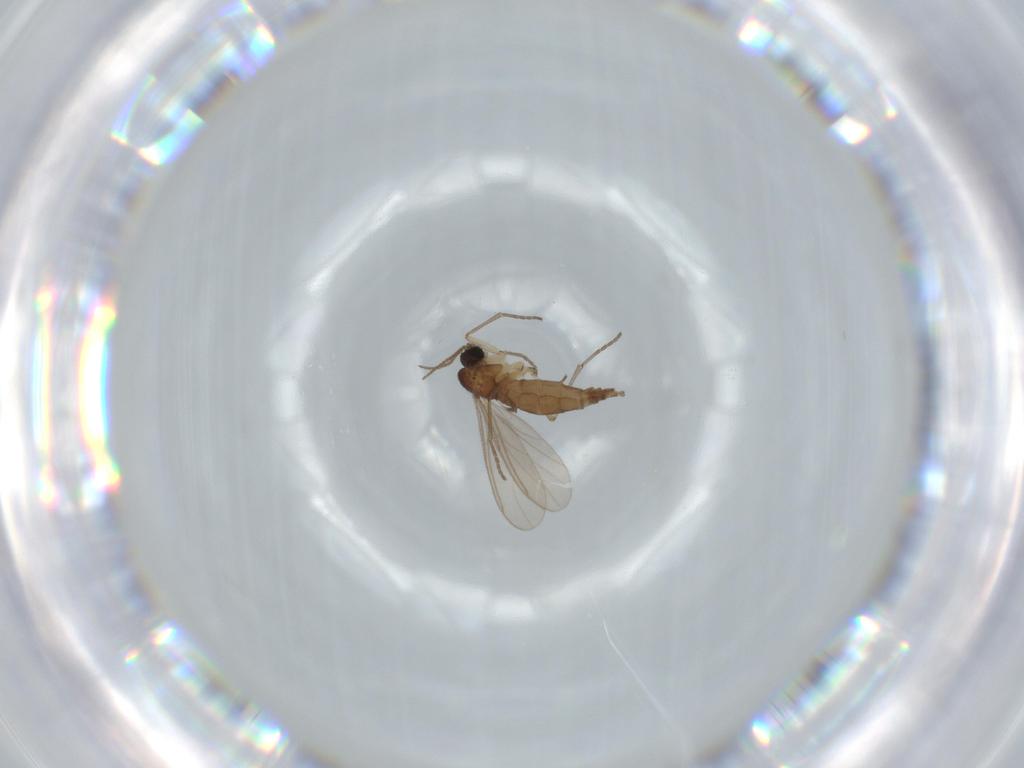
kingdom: Animalia
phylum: Arthropoda
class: Insecta
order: Diptera
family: Sciaridae
